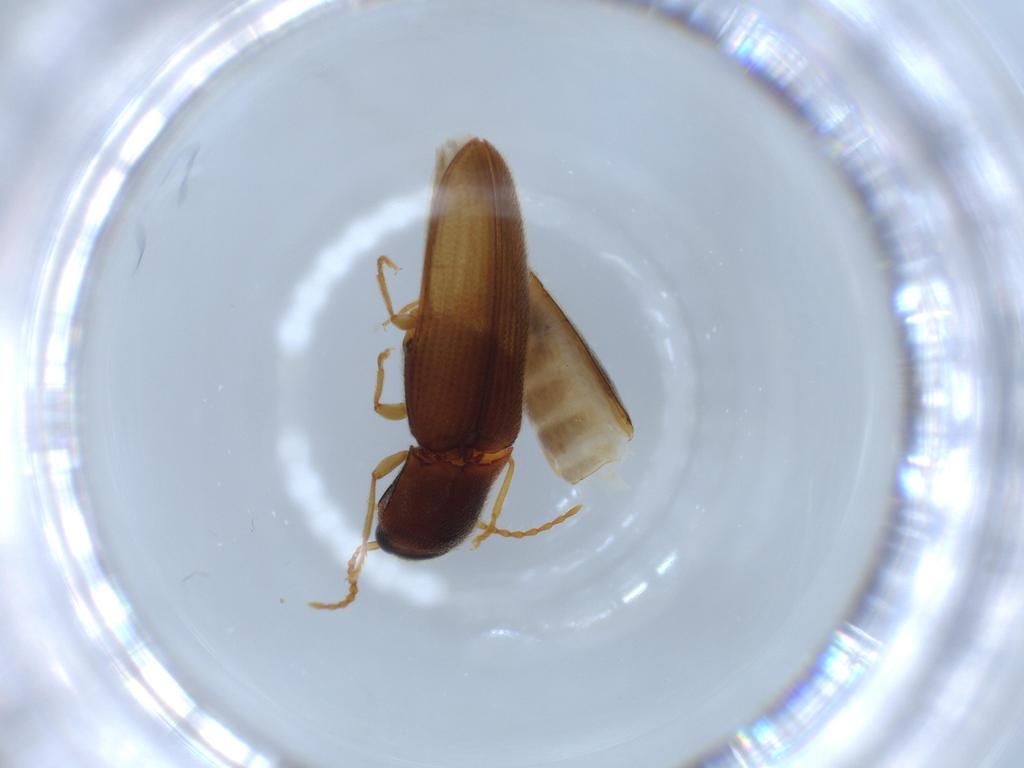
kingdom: Animalia
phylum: Arthropoda
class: Insecta
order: Coleoptera
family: Elateridae
